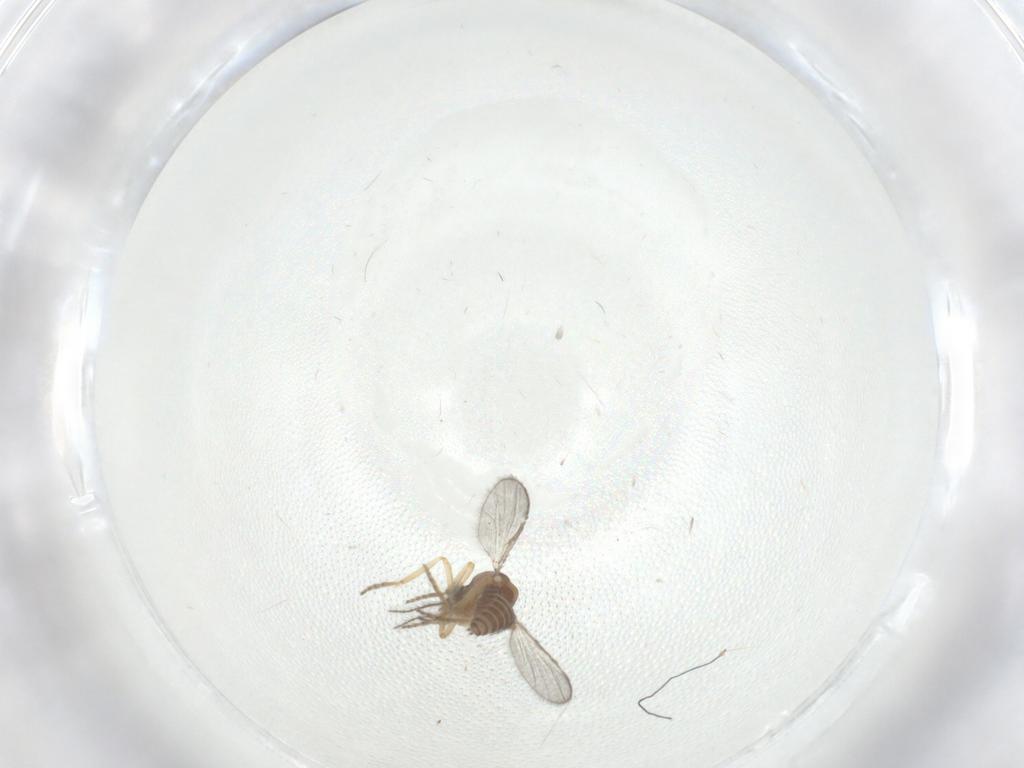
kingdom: Animalia
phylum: Arthropoda
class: Insecta
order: Diptera
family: Ceratopogonidae
